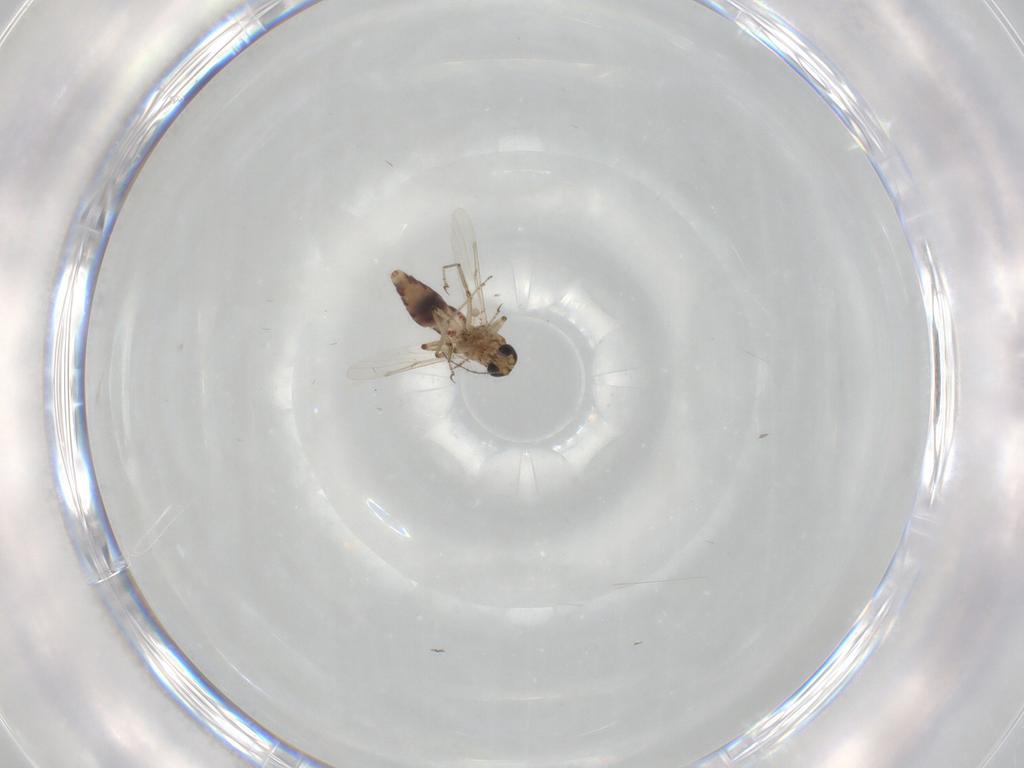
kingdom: Animalia
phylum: Arthropoda
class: Insecta
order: Diptera
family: Ceratopogonidae
